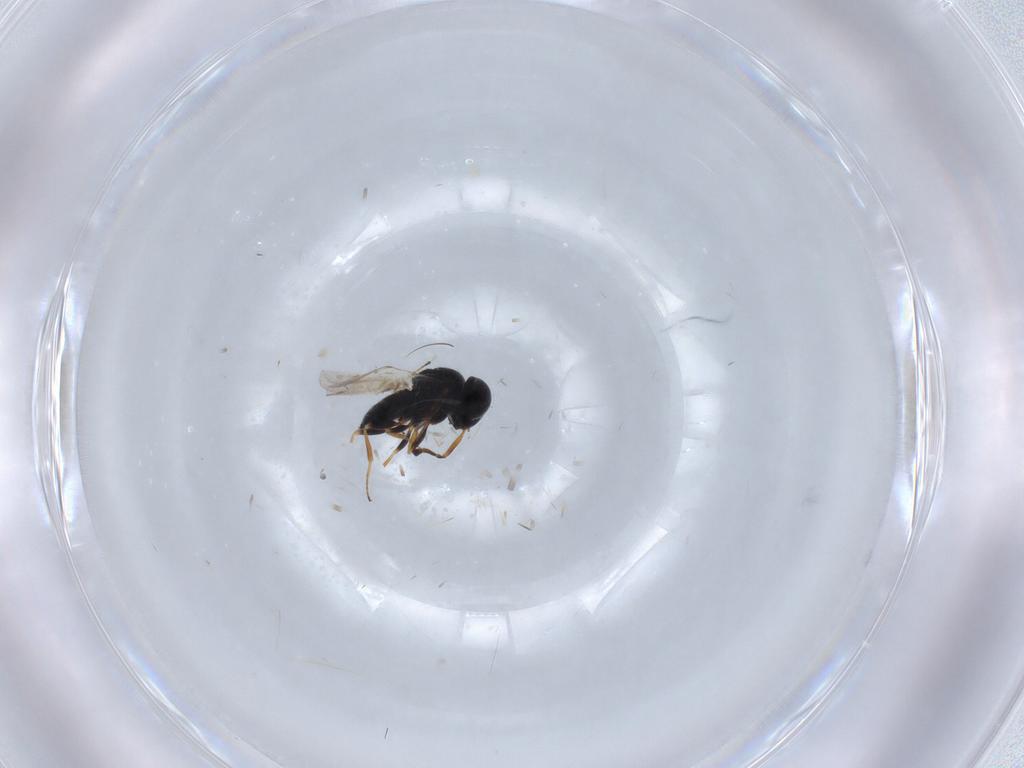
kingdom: Animalia
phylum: Arthropoda
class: Insecta
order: Coleoptera
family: Curculionidae
